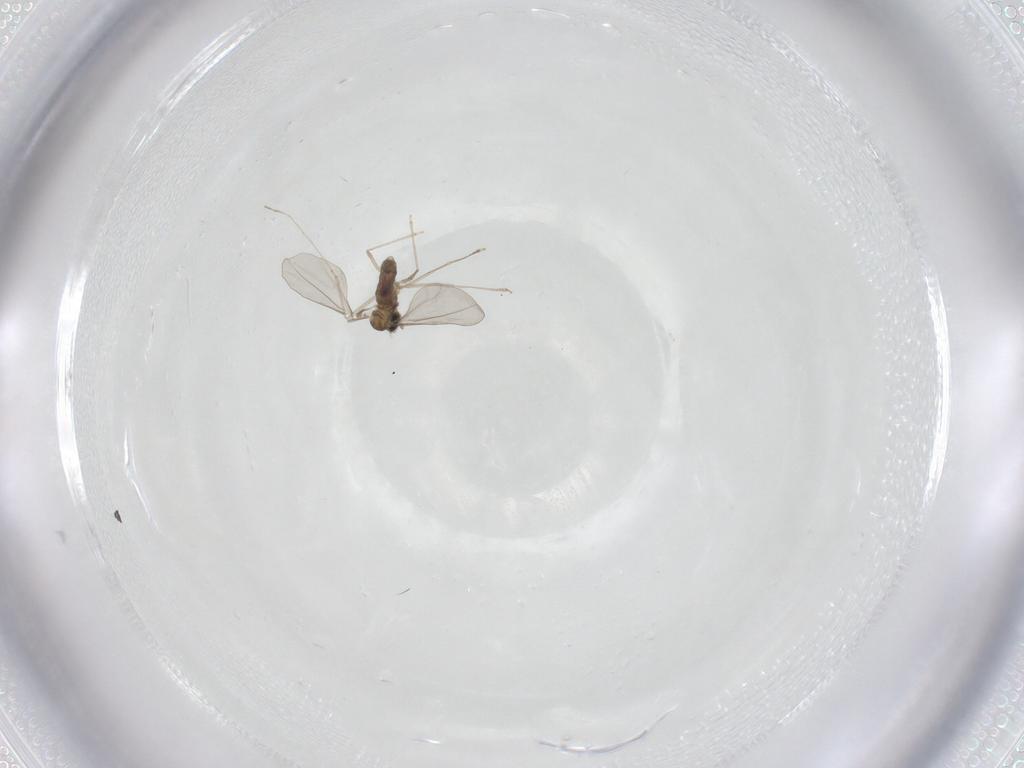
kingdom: Animalia
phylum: Arthropoda
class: Insecta
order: Diptera
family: Cecidomyiidae
